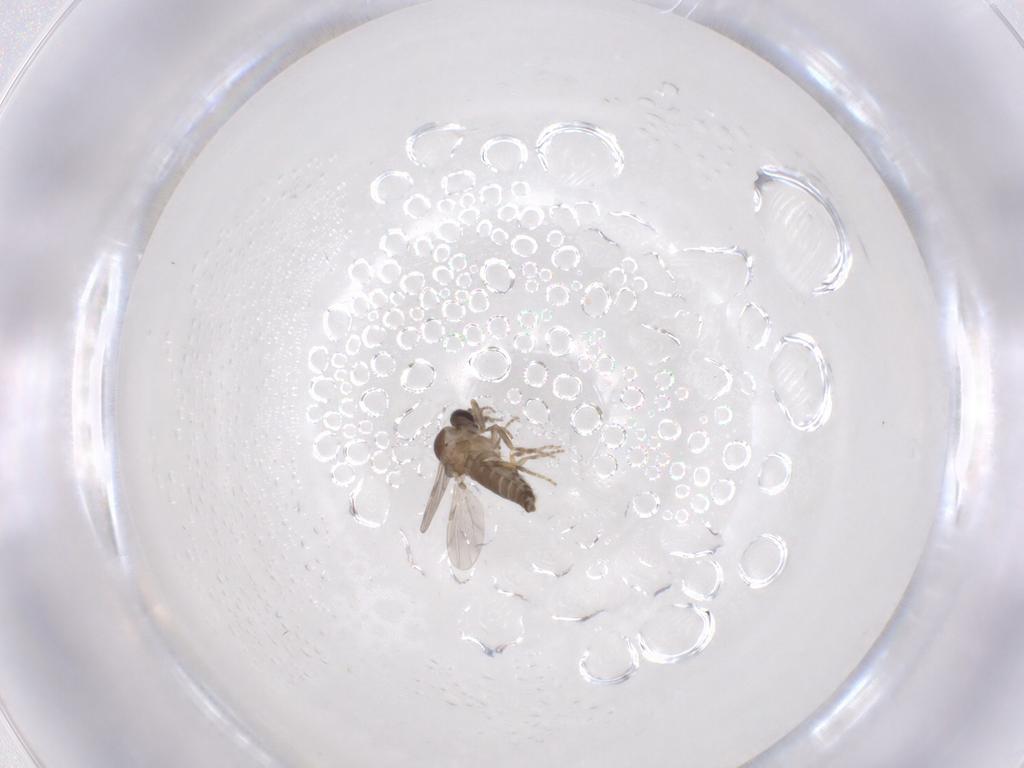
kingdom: Animalia
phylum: Arthropoda
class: Insecta
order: Diptera
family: Ceratopogonidae
